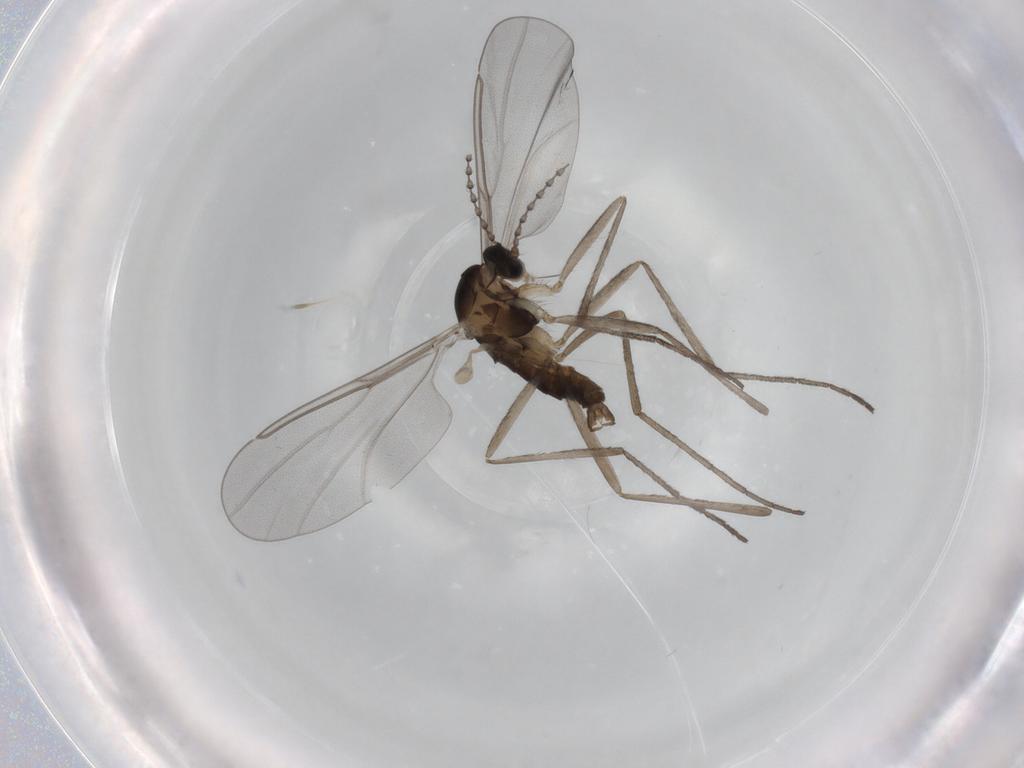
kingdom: Animalia
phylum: Arthropoda
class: Insecta
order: Diptera
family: Cecidomyiidae
